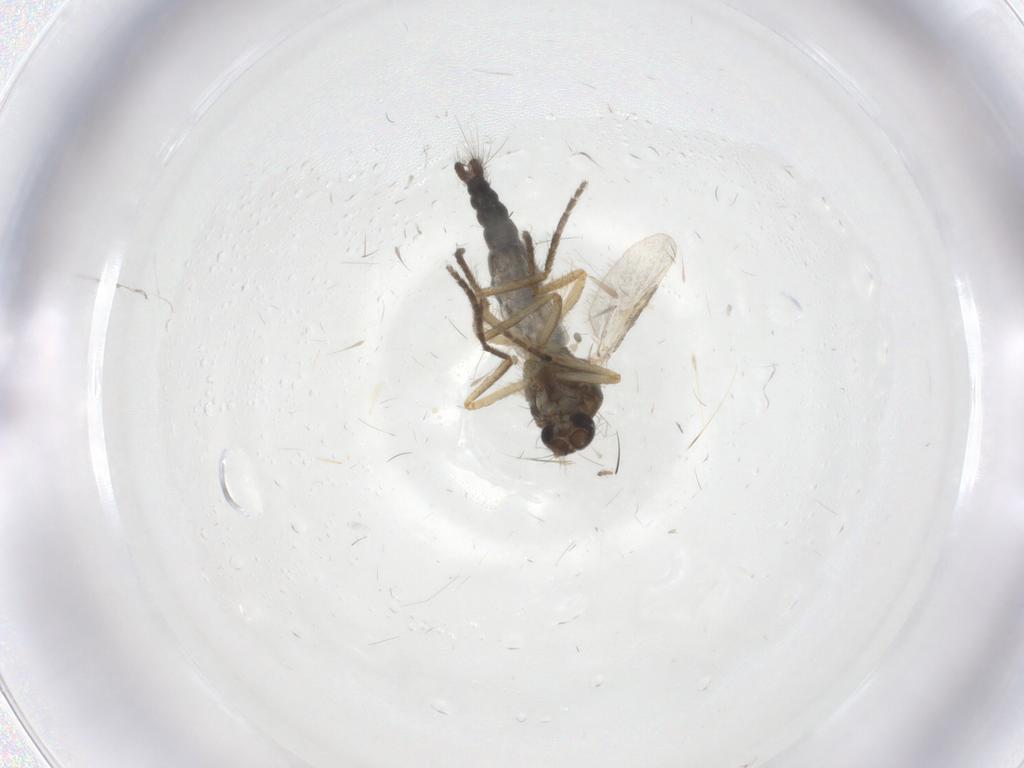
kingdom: Animalia
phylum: Arthropoda
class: Insecta
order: Diptera
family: Ceratopogonidae
